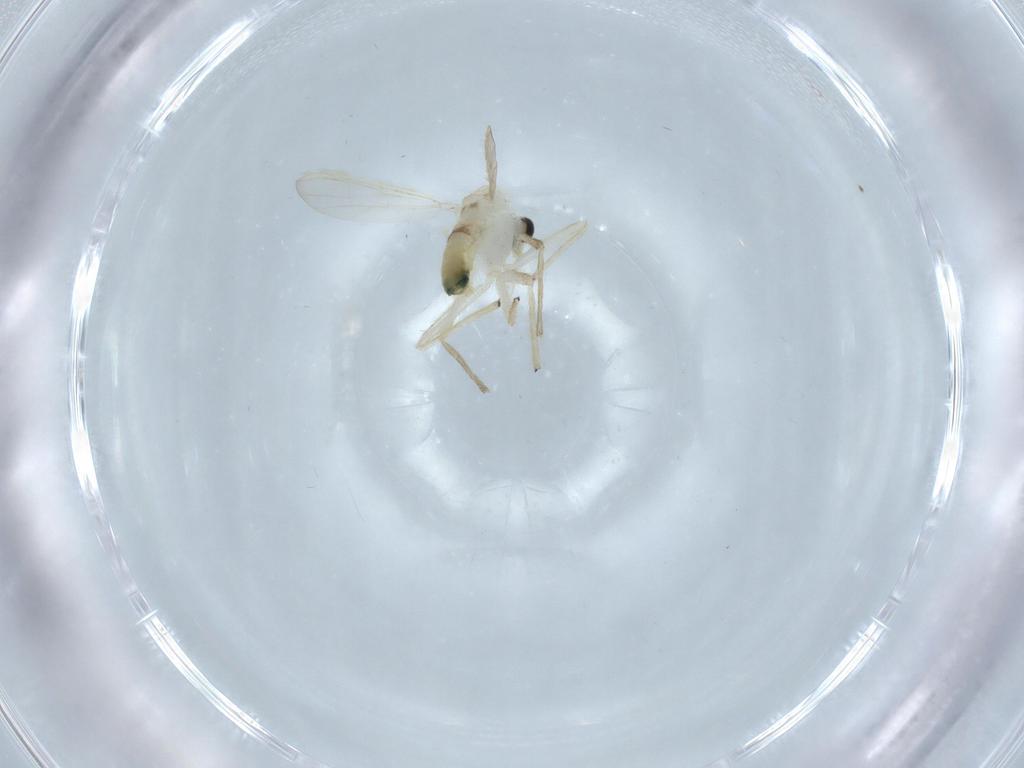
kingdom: Animalia
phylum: Arthropoda
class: Insecta
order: Diptera
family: Chironomidae
